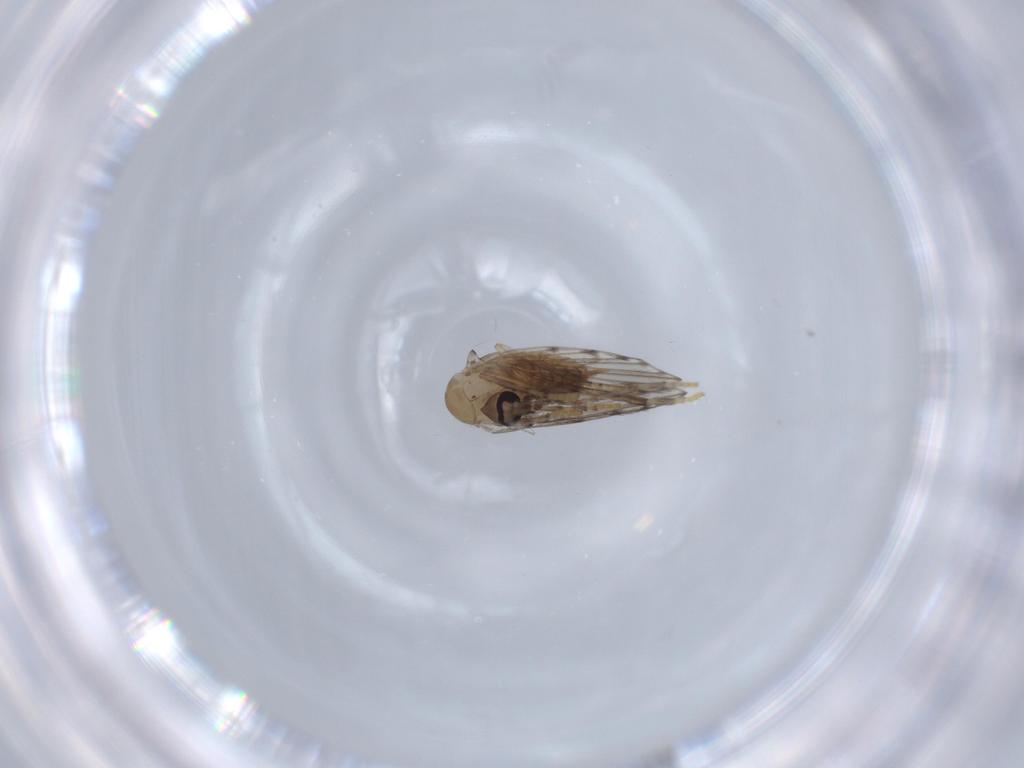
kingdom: Animalia
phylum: Arthropoda
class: Insecta
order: Diptera
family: Psychodidae
